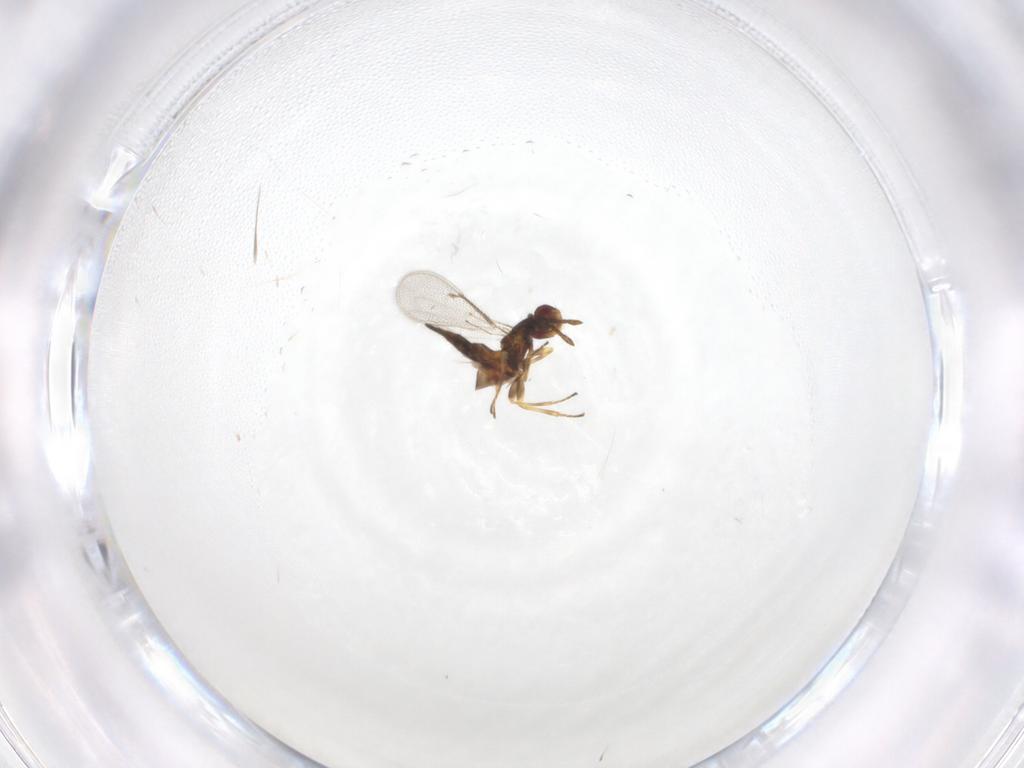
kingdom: Animalia
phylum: Arthropoda
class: Insecta
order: Hymenoptera
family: Eulophidae
